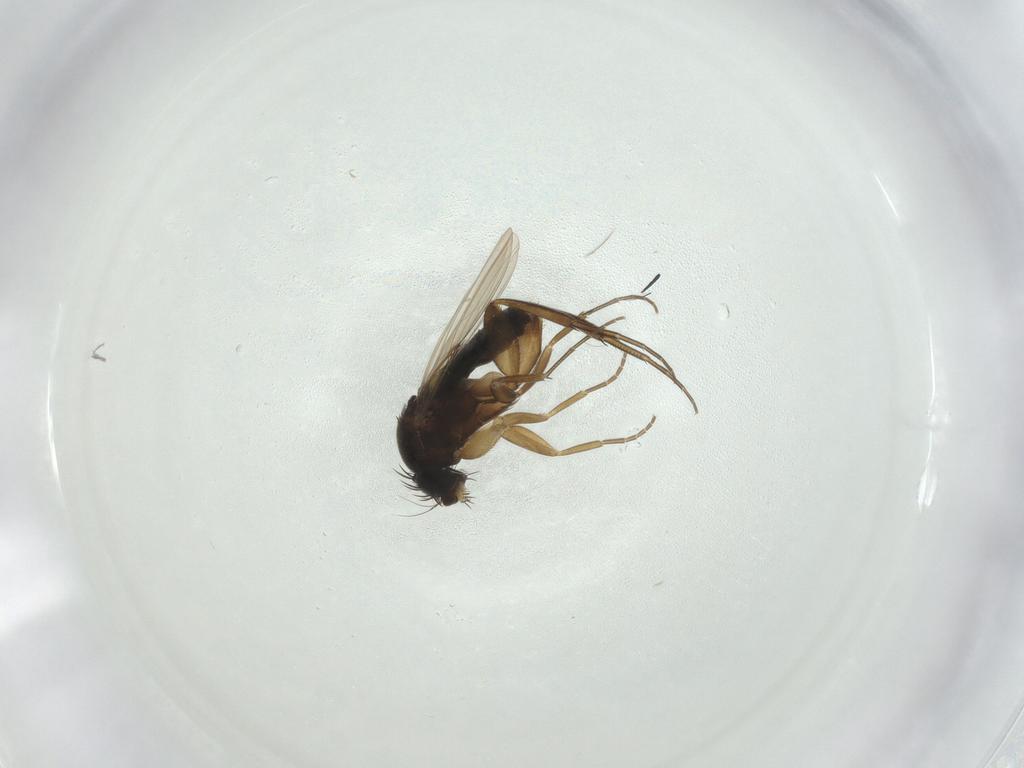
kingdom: Animalia
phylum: Arthropoda
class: Insecta
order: Diptera
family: Phoridae
